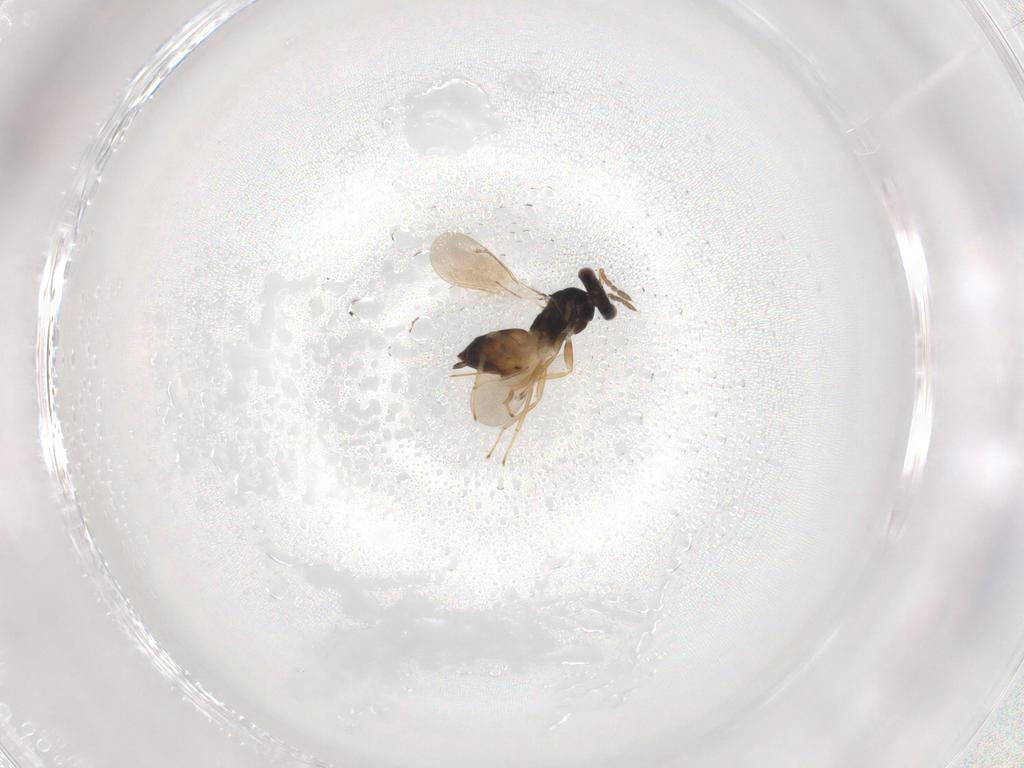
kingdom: Animalia
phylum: Arthropoda
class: Insecta
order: Hymenoptera
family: Eulophidae
